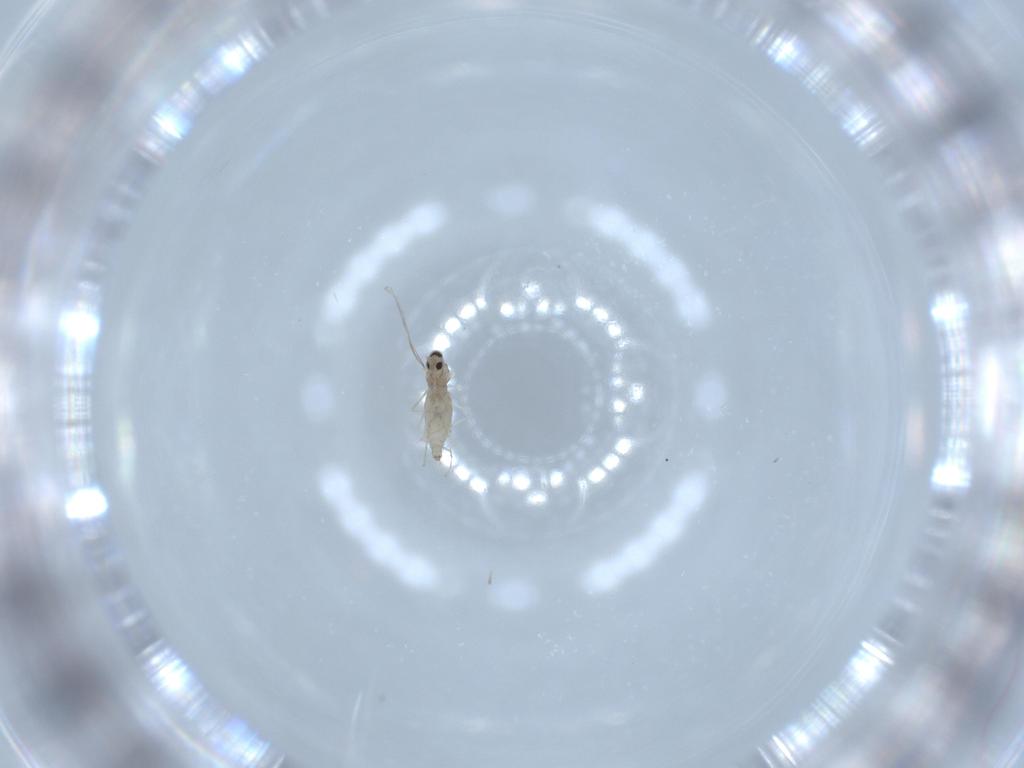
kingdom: Animalia
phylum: Arthropoda
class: Insecta
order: Diptera
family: Cecidomyiidae
